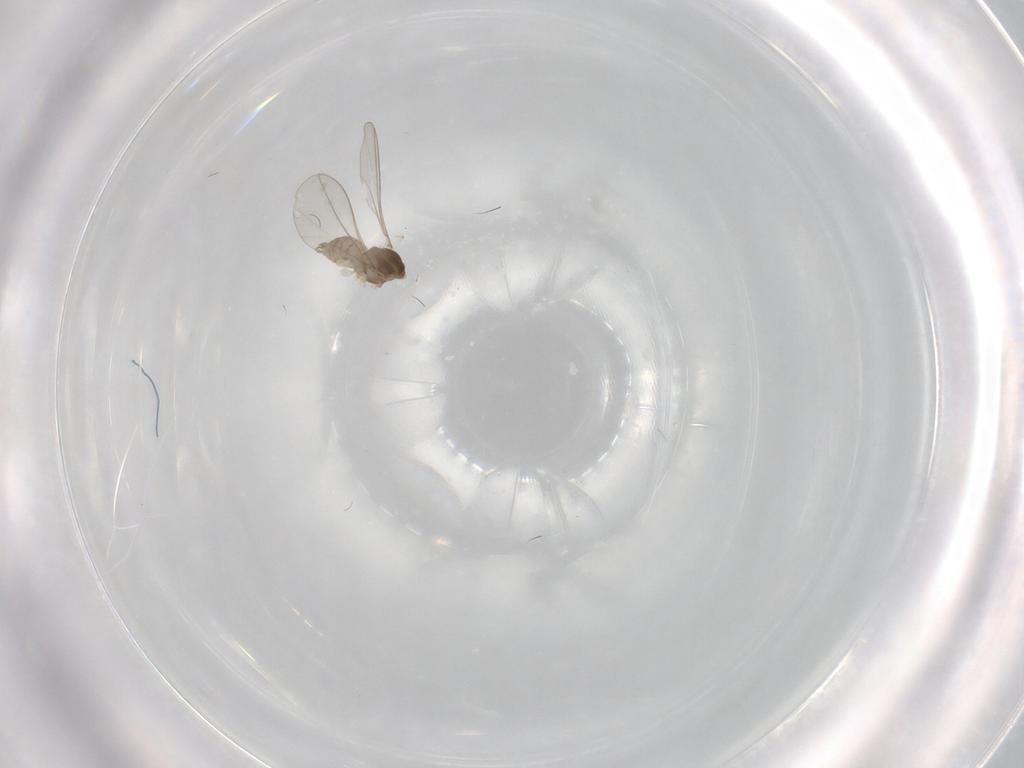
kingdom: Animalia
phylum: Arthropoda
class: Insecta
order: Diptera
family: Cecidomyiidae
